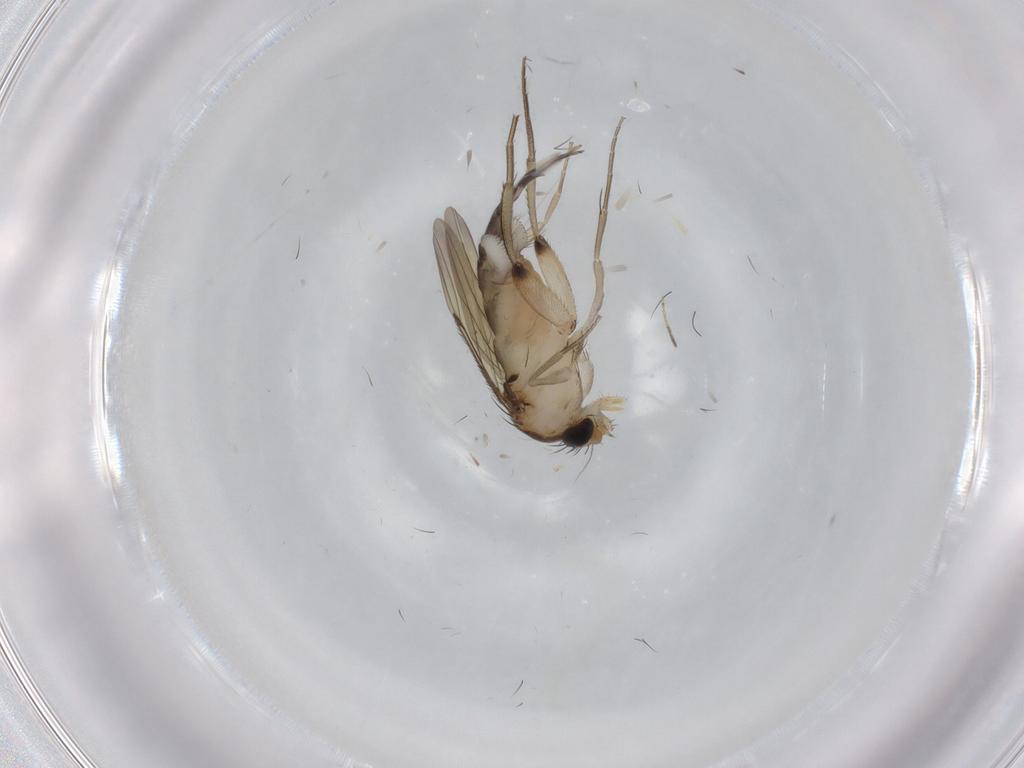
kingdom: Animalia
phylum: Arthropoda
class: Insecta
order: Diptera
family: Phoridae
